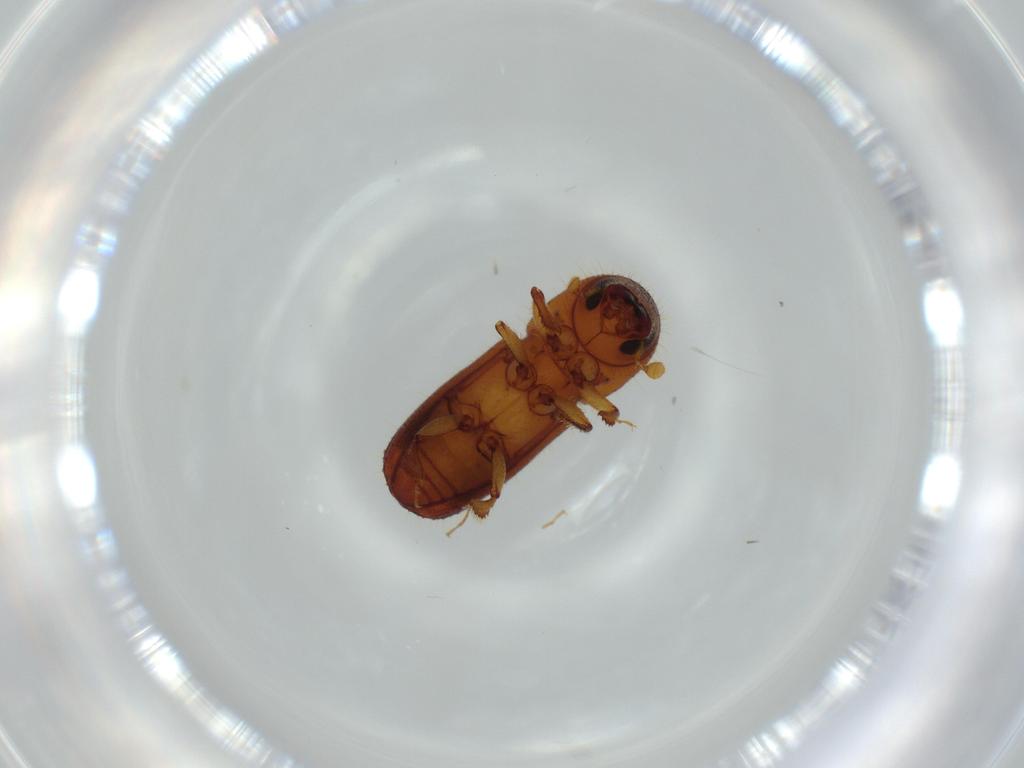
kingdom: Animalia
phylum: Arthropoda
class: Insecta
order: Coleoptera
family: Curculionidae
